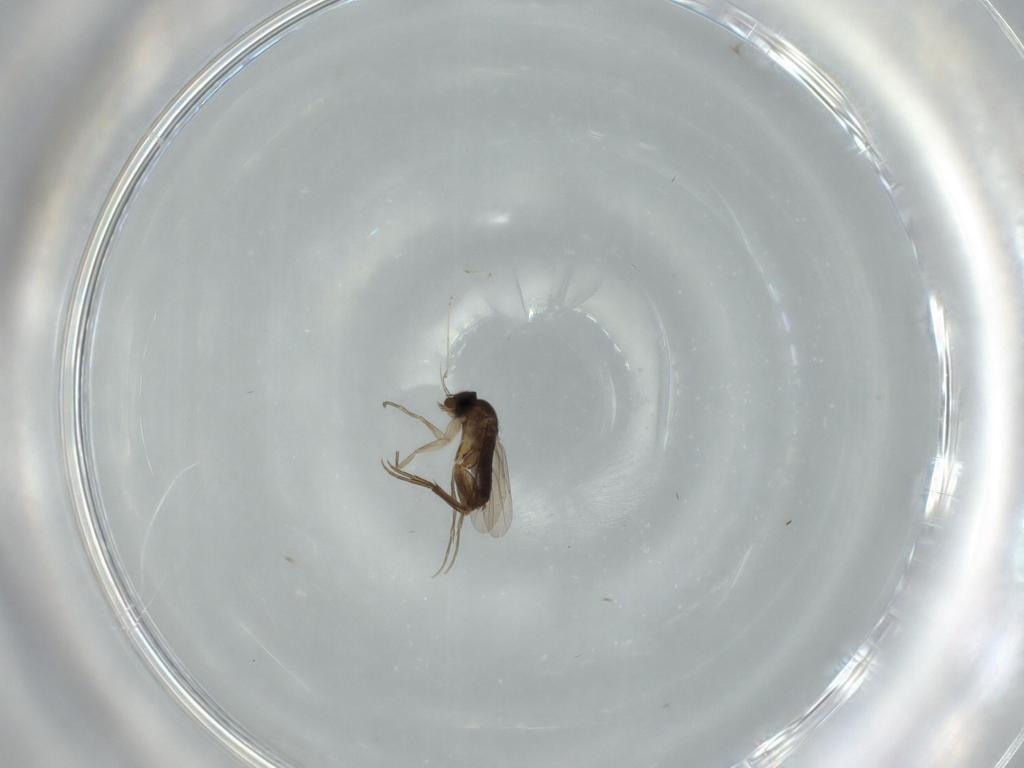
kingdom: Animalia
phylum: Arthropoda
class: Insecta
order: Diptera
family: Phoridae
